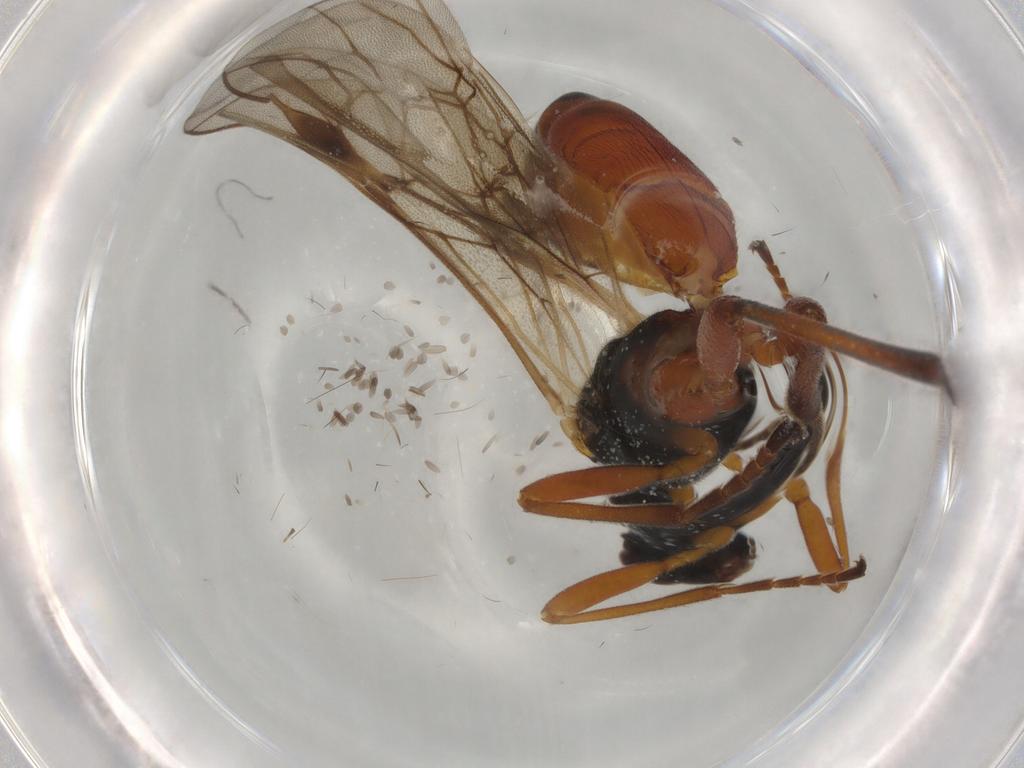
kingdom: Animalia
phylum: Arthropoda
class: Insecta
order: Hymenoptera
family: Braconidae
